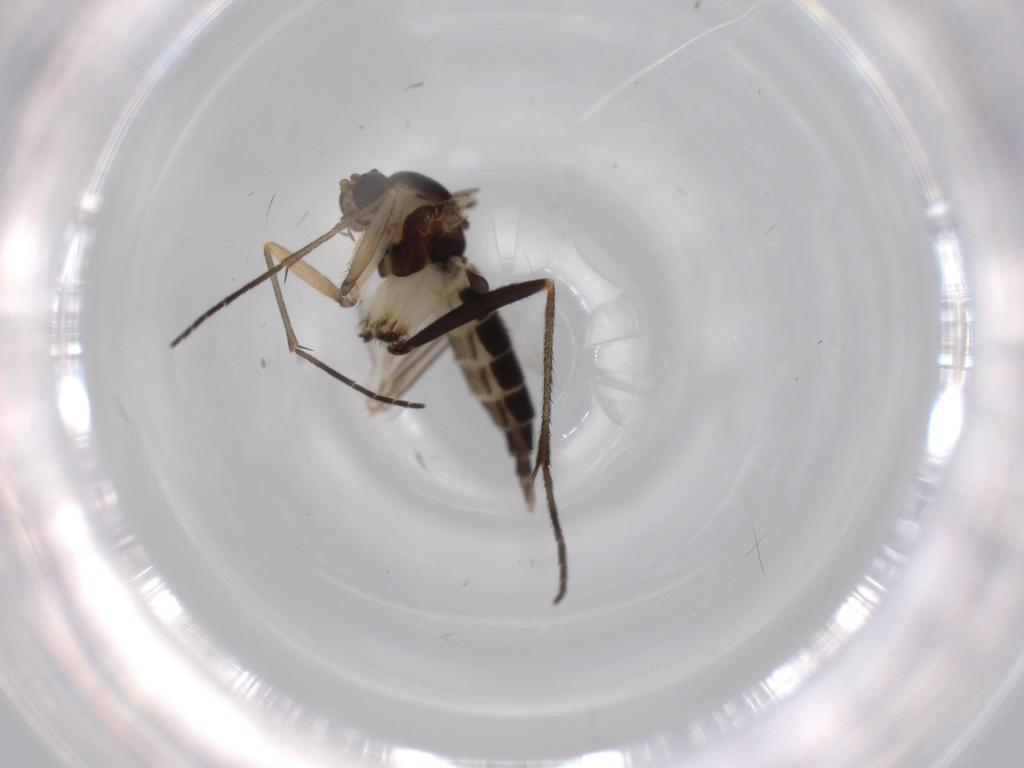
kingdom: Animalia
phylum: Arthropoda
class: Insecta
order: Diptera
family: Sciaridae
